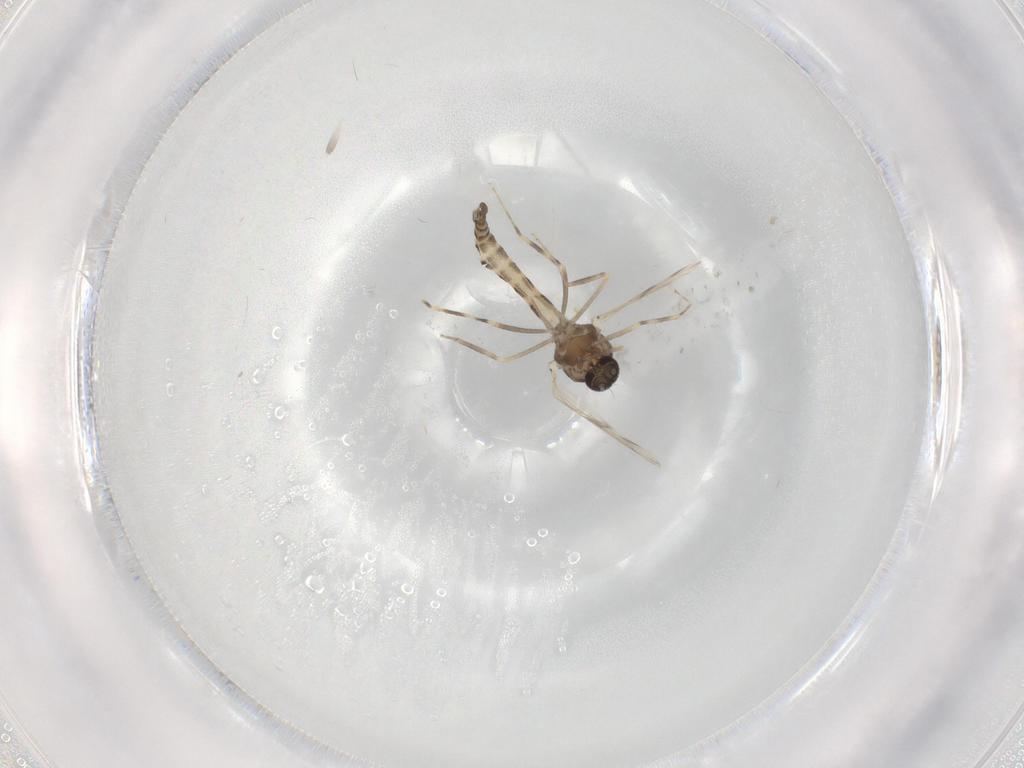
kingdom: Animalia
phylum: Arthropoda
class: Insecta
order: Diptera
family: Ceratopogonidae
